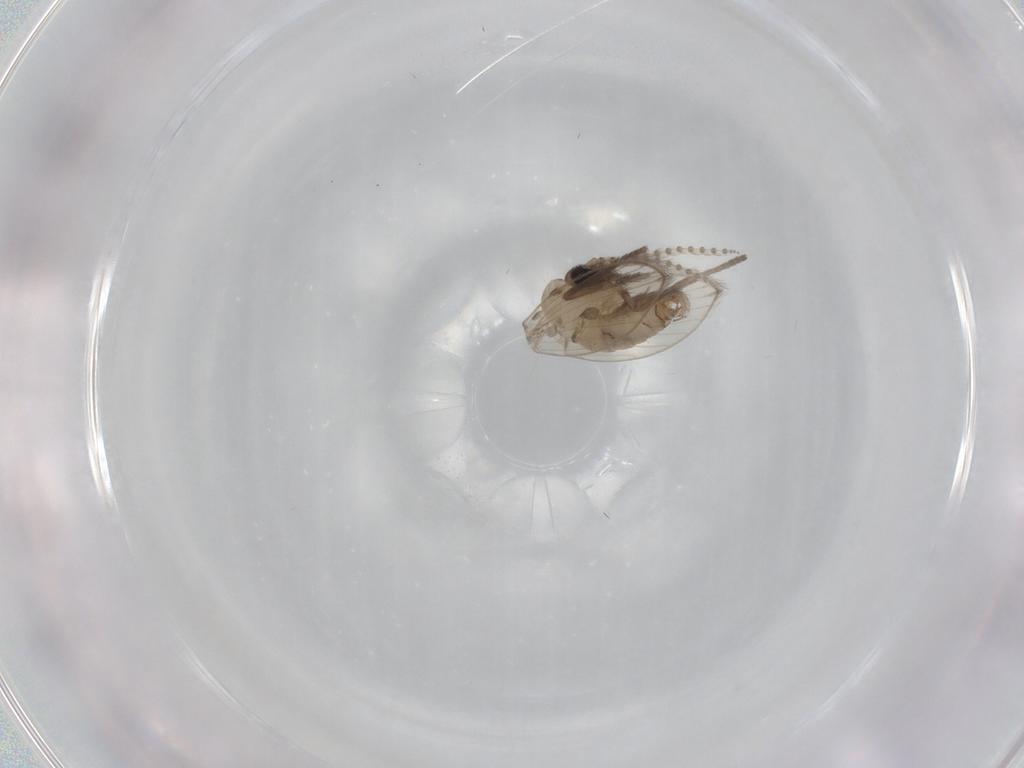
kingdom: Animalia
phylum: Arthropoda
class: Insecta
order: Diptera
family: Psychodidae
